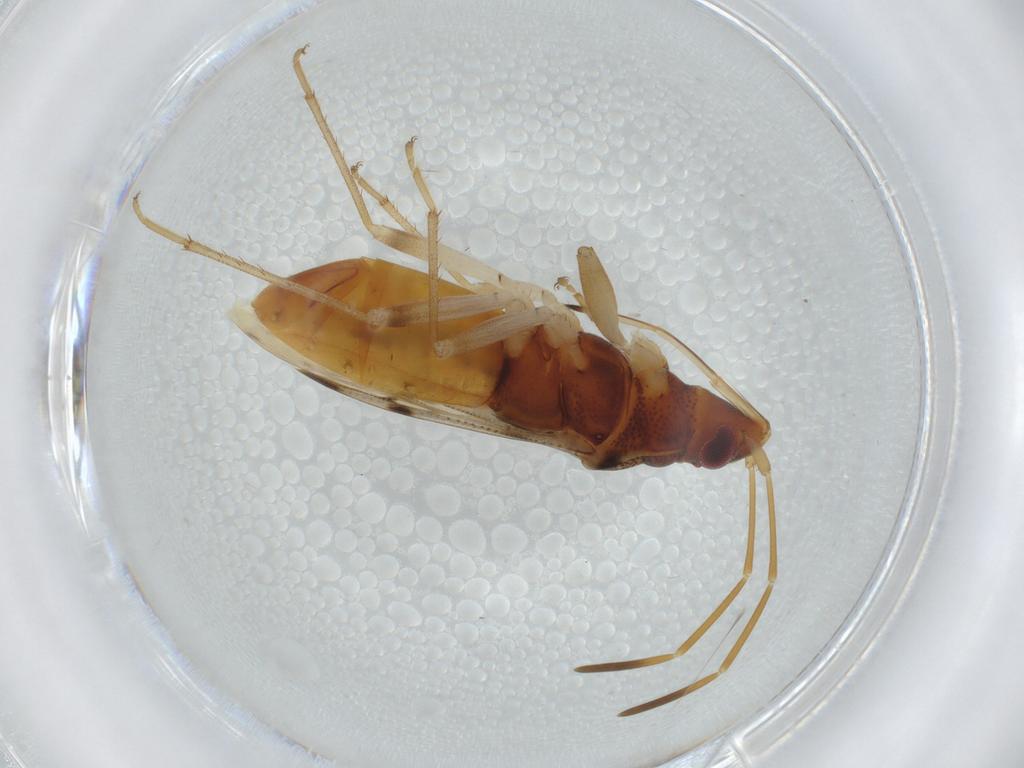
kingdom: Animalia
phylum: Arthropoda
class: Insecta
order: Hemiptera
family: Rhyparochromidae
